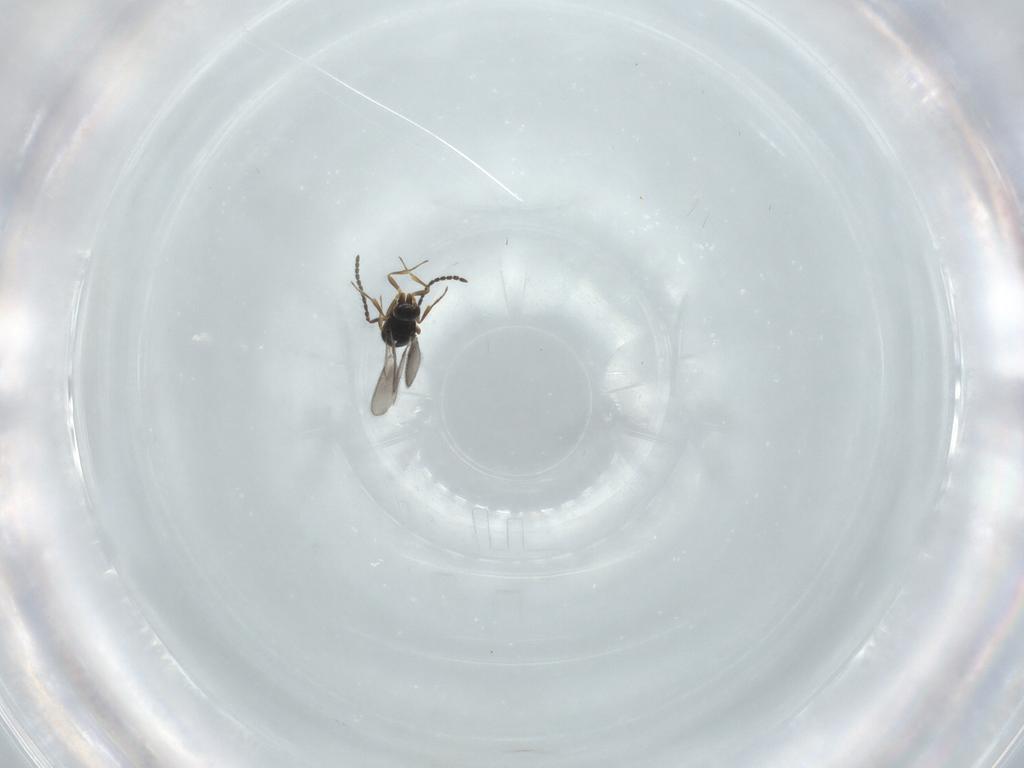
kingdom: Animalia
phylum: Arthropoda
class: Insecta
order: Hymenoptera
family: Scelionidae
